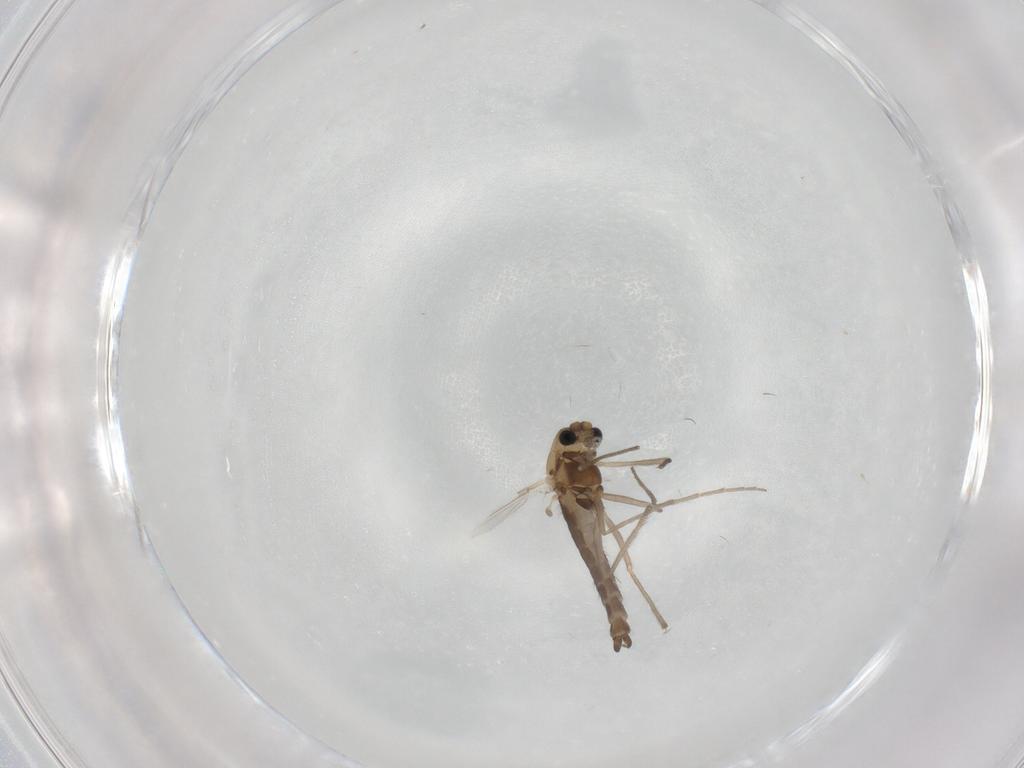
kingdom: Animalia
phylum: Arthropoda
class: Insecta
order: Diptera
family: Chironomidae
